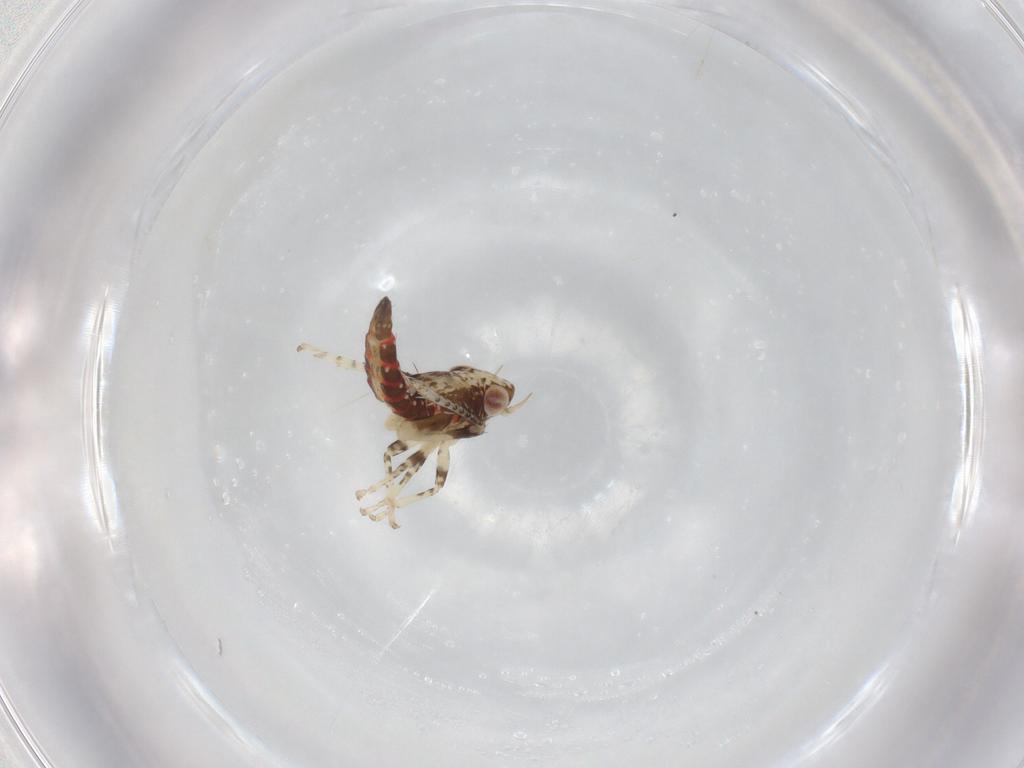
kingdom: Animalia
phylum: Arthropoda
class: Insecta
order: Hemiptera
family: Cicadellidae
